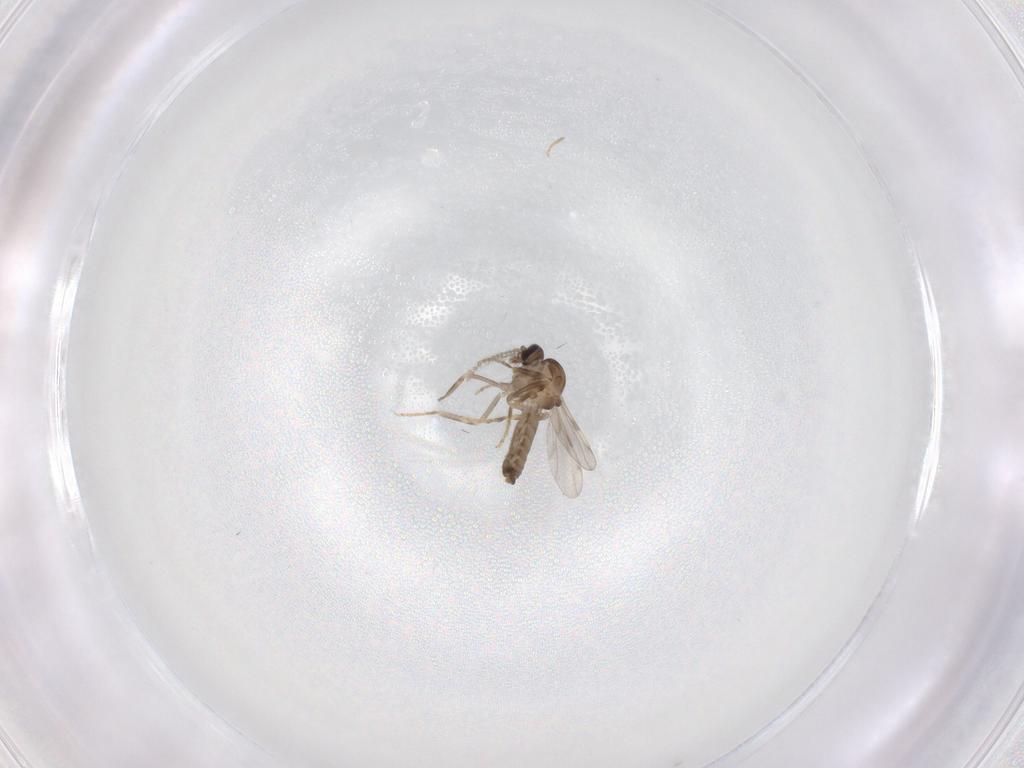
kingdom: Animalia
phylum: Arthropoda
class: Insecta
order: Diptera
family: Ceratopogonidae
